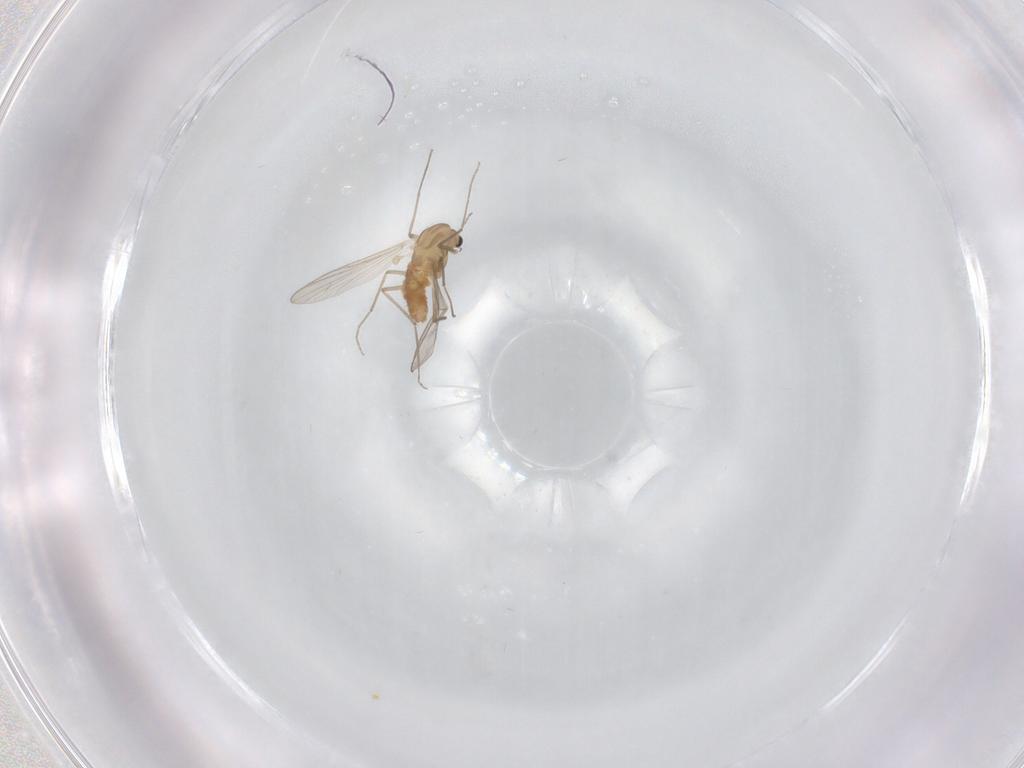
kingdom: Animalia
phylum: Arthropoda
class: Insecta
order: Diptera
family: Chironomidae
